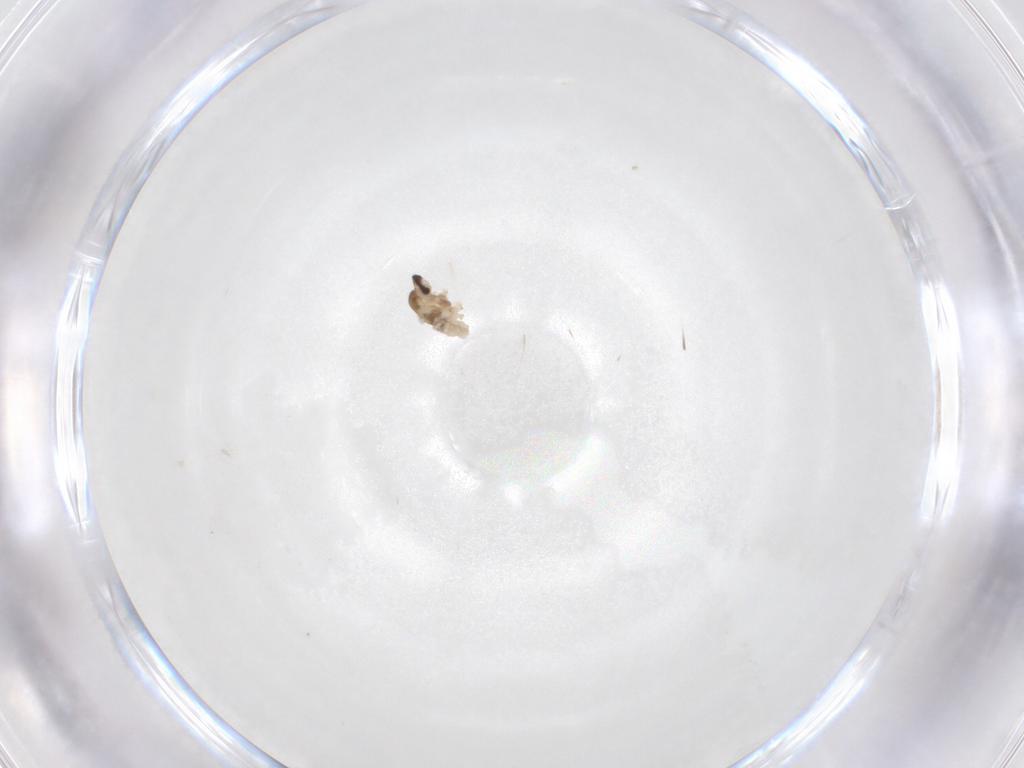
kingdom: Animalia
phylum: Arthropoda
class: Insecta
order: Diptera
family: Cecidomyiidae
